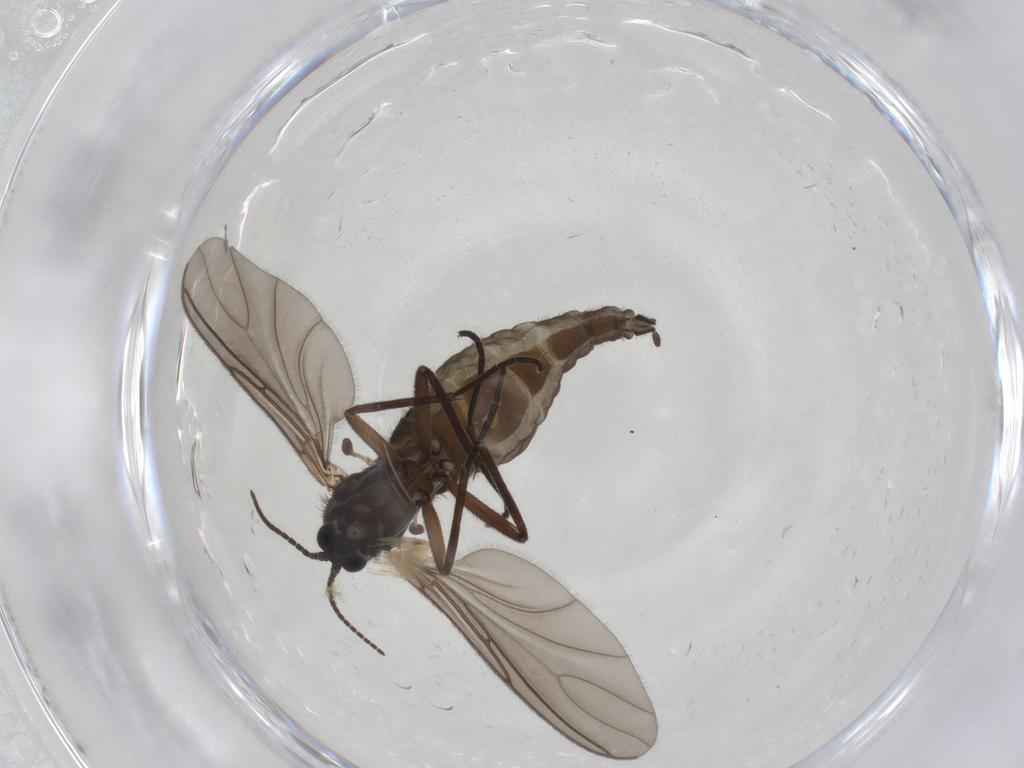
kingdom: Animalia
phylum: Arthropoda
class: Insecta
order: Diptera
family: Sciaridae
